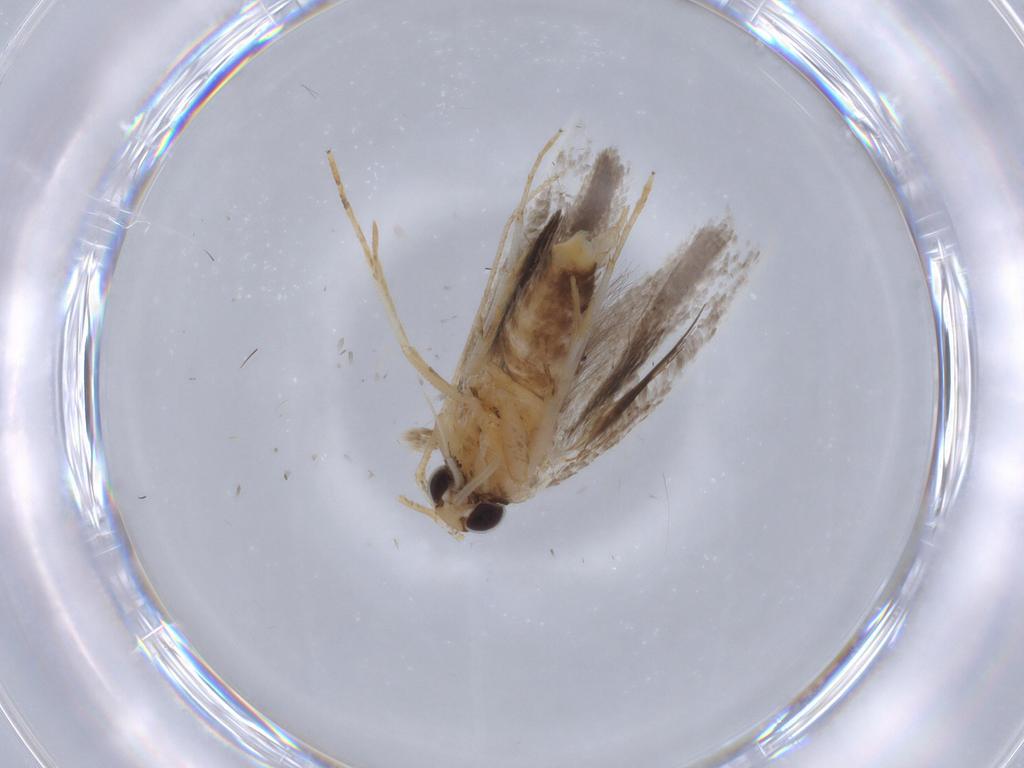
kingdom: Animalia
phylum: Arthropoda
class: Insecta
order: Lepidoptera
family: Gelechiidae
